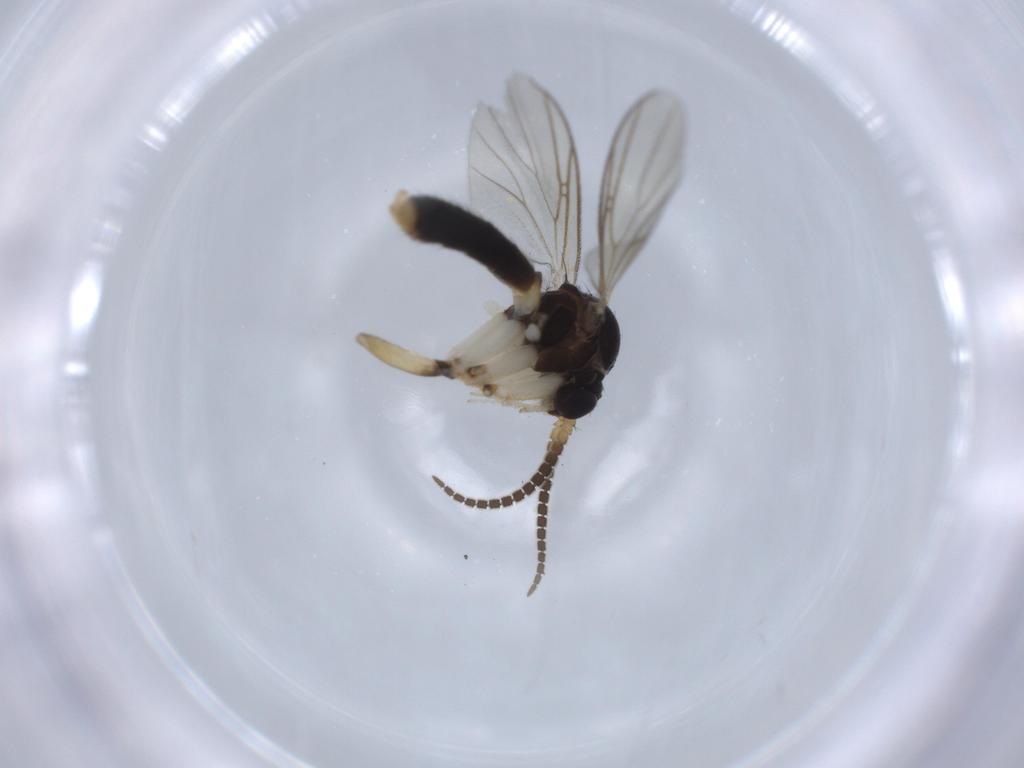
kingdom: Animalia
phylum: Arthropoda
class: Insecta
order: Diptera
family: Chironomidae
